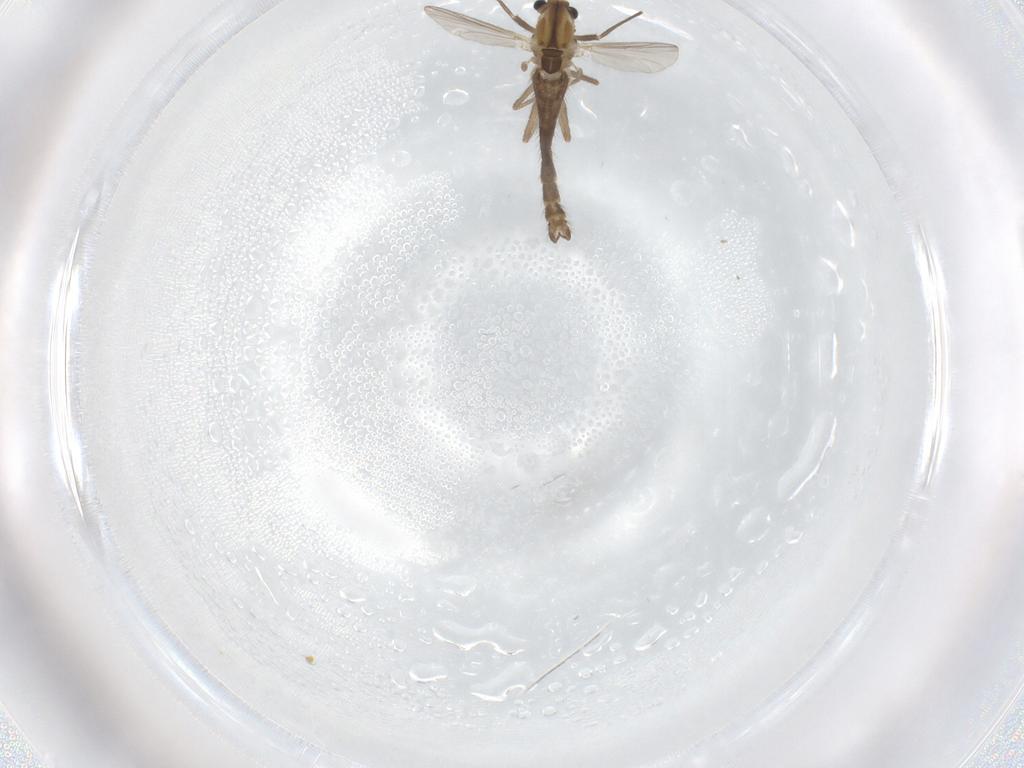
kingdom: Animalia
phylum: Arthropoda
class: Insecta
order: Diptera
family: Chironomidae
